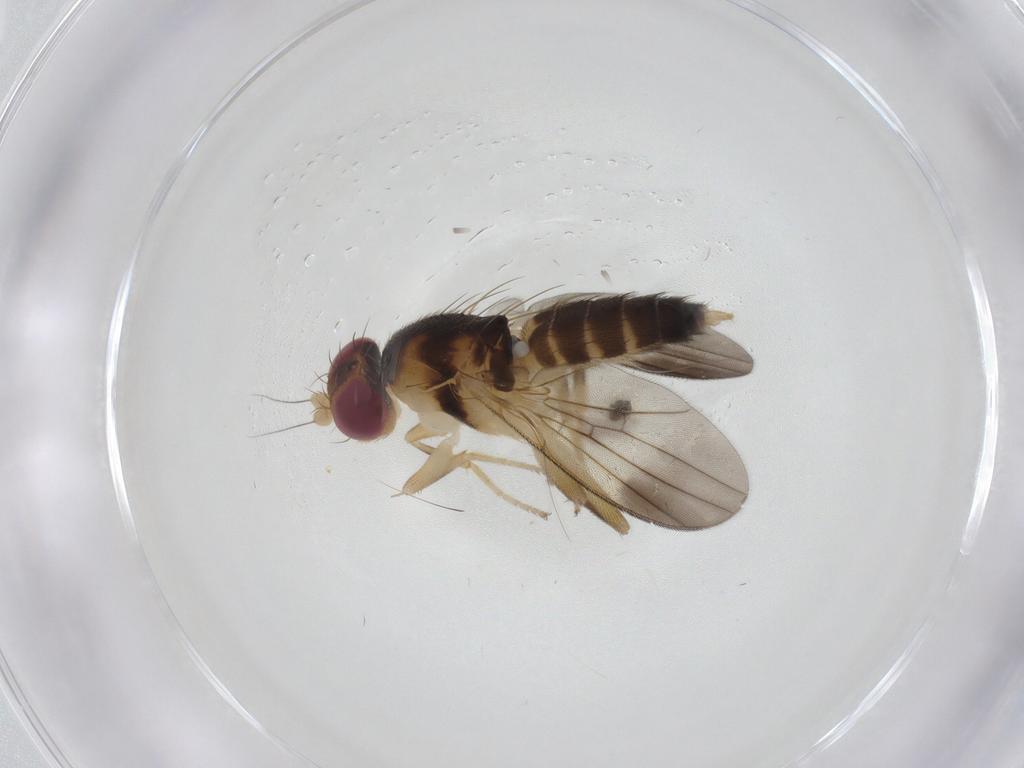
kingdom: Animalia
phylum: Arthropoda
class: Insecta
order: Diptera
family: Clusiidae
